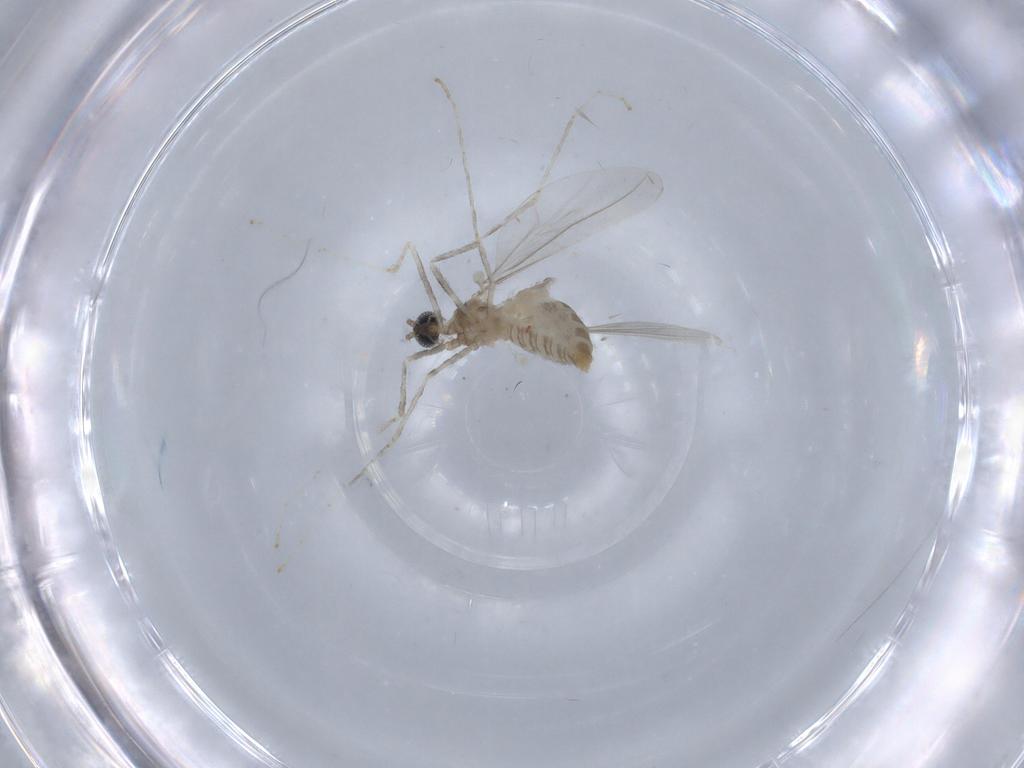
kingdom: Animalia
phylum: Arthropoda
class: Insecta
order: Diptera
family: Cecidomyiidae
